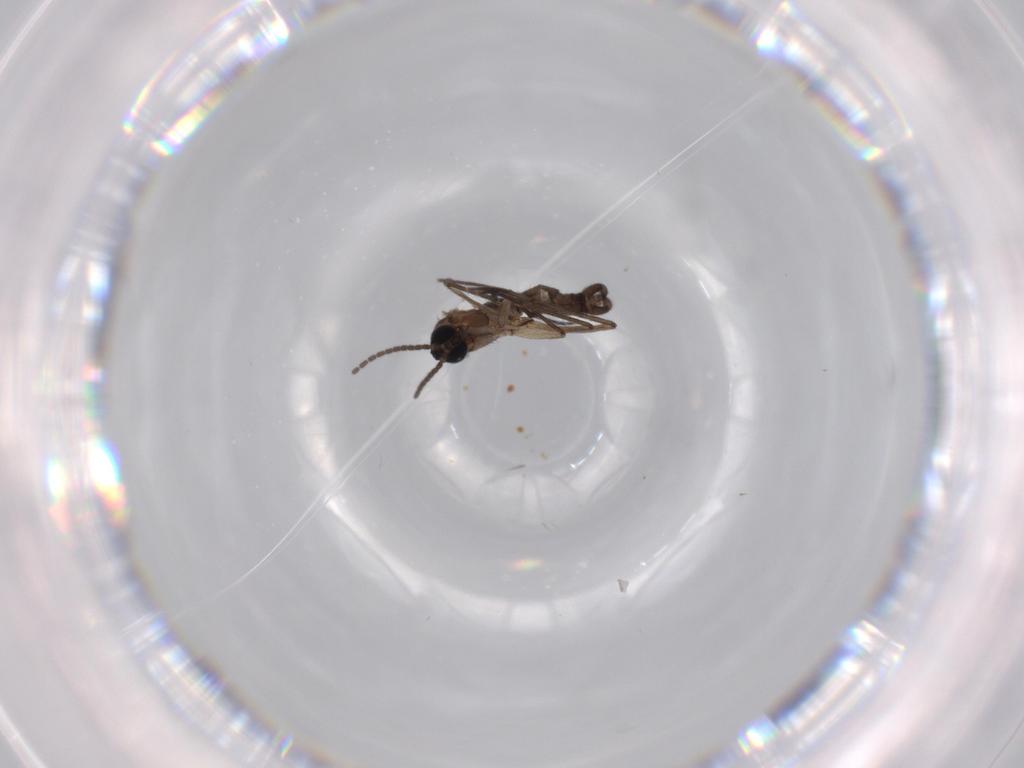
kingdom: Animalia
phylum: Arthropoda
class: Insecta
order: Diptera
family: Sciaridae
